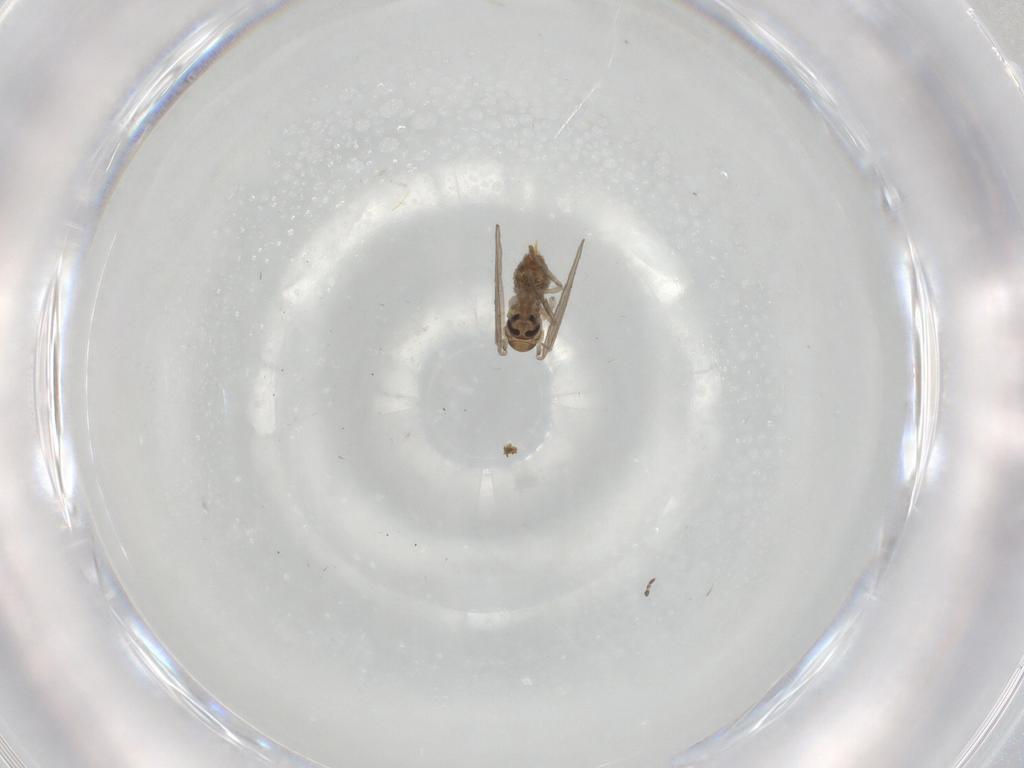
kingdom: Animalia
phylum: Arthropoda
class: Insecta
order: Diptera
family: Psychodidae
